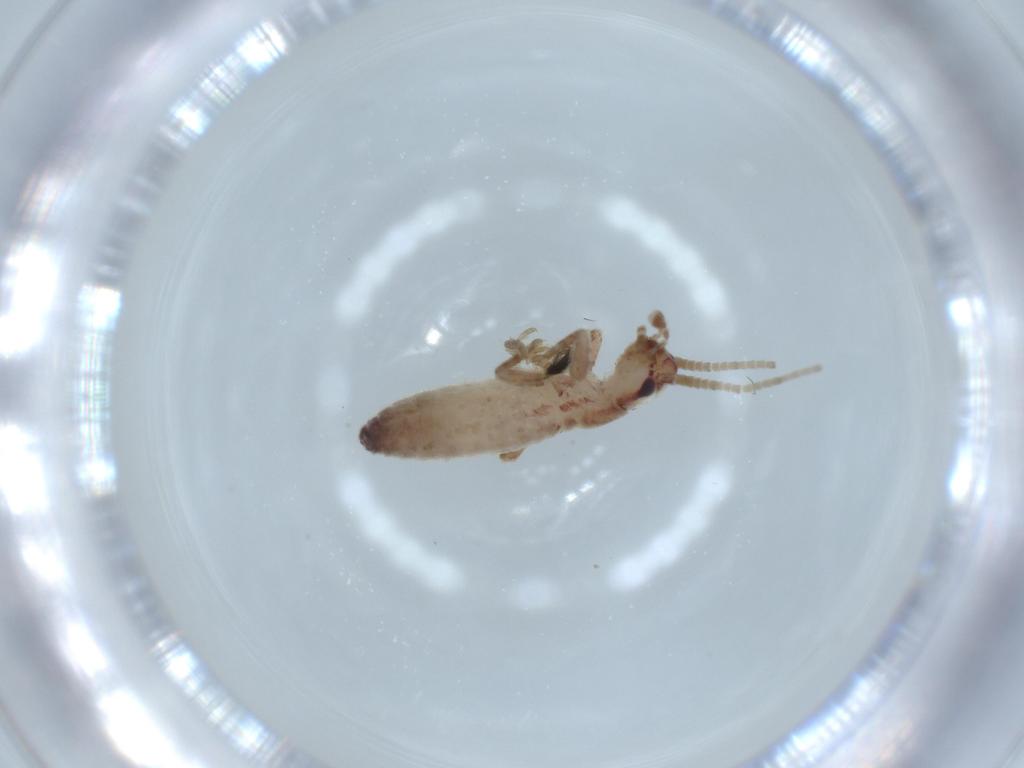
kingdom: Animalia
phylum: Arthropoda
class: Insecta
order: Orthoptera
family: Mogoplistidae
